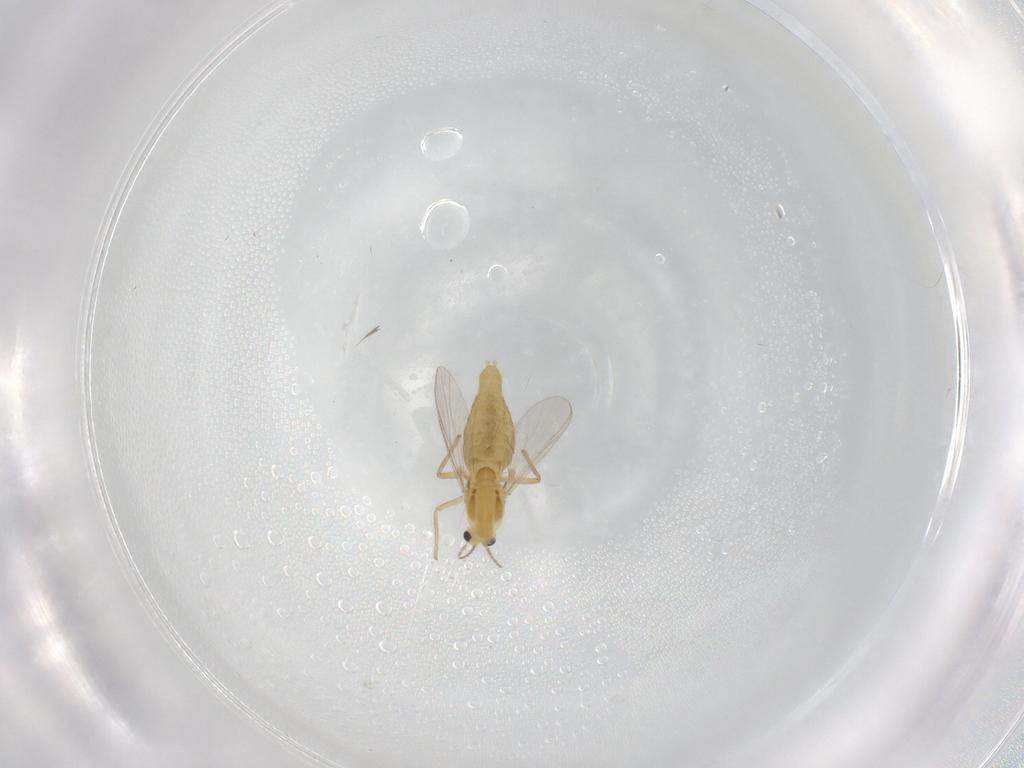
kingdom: Animalia
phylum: Arthropoda
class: Insecta
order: Diptera
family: Chironomidae
